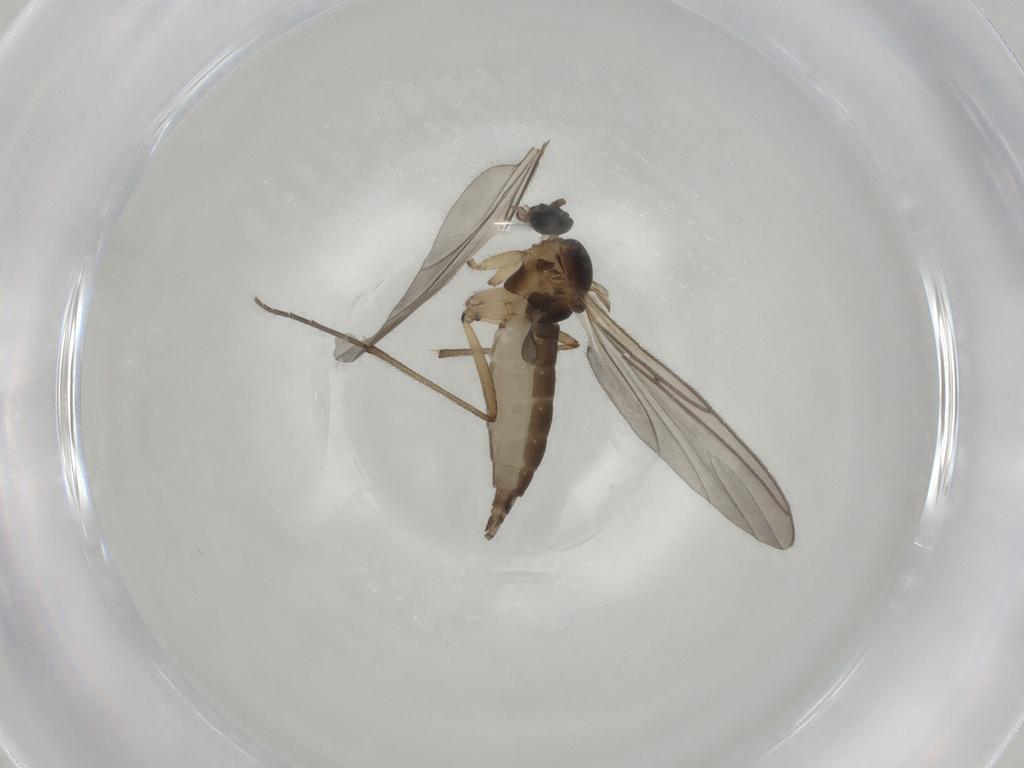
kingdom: Animalia
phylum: Arthropoda
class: Insecta
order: Diptera
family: Sciaridae
